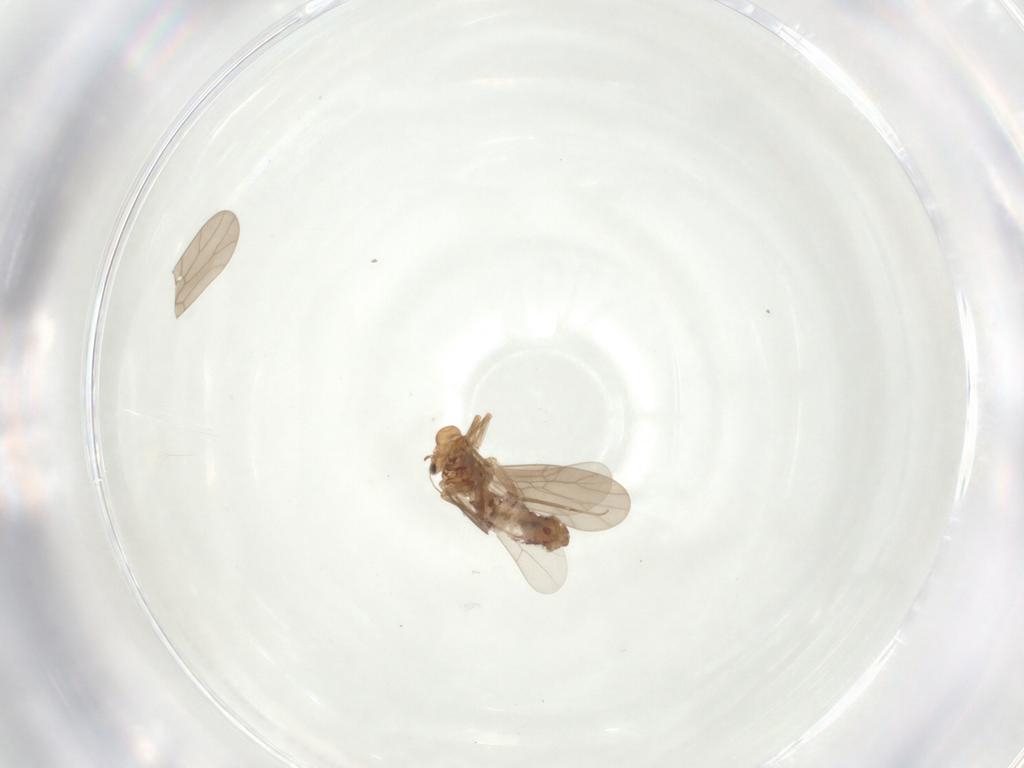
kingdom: Animalia
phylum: Arthropoda
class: Insecta
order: Psocodea
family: Lepidopsocidae
